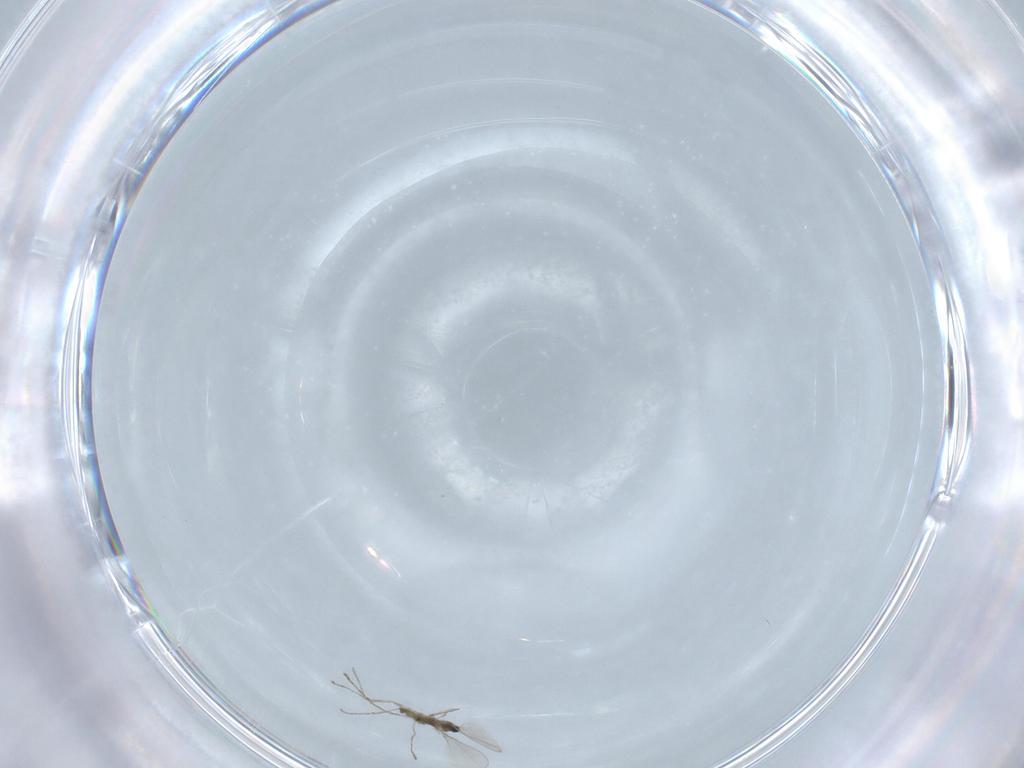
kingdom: Animalia
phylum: Arthropoda
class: Insecta
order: Diptera
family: Cecidomyiidae
